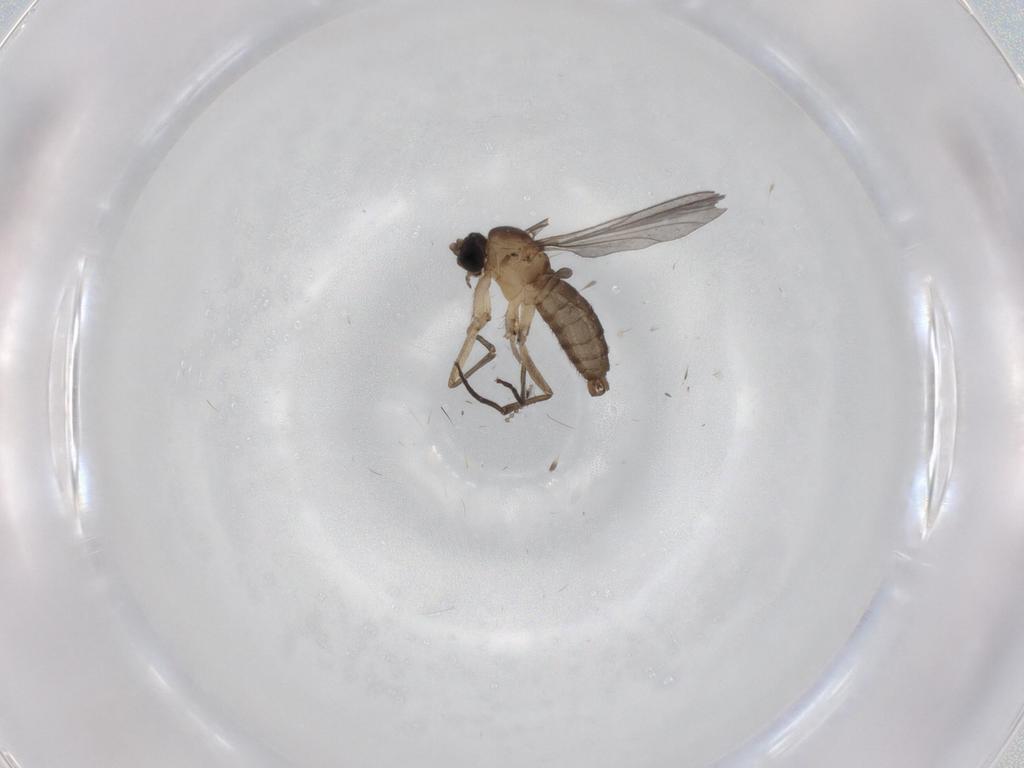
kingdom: Animalia
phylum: Arthropoda
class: Insecta
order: Diptera
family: Sciaridae
